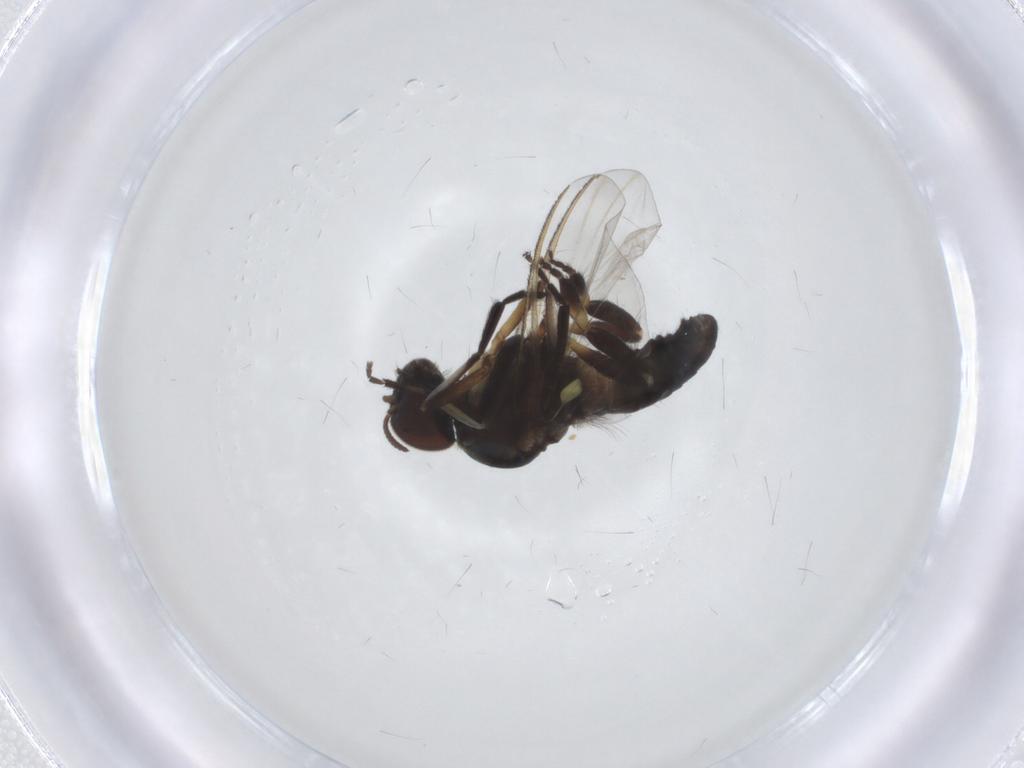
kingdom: Animalia
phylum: Arthropoda
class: Insecta
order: Diptera
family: Simuliidae
